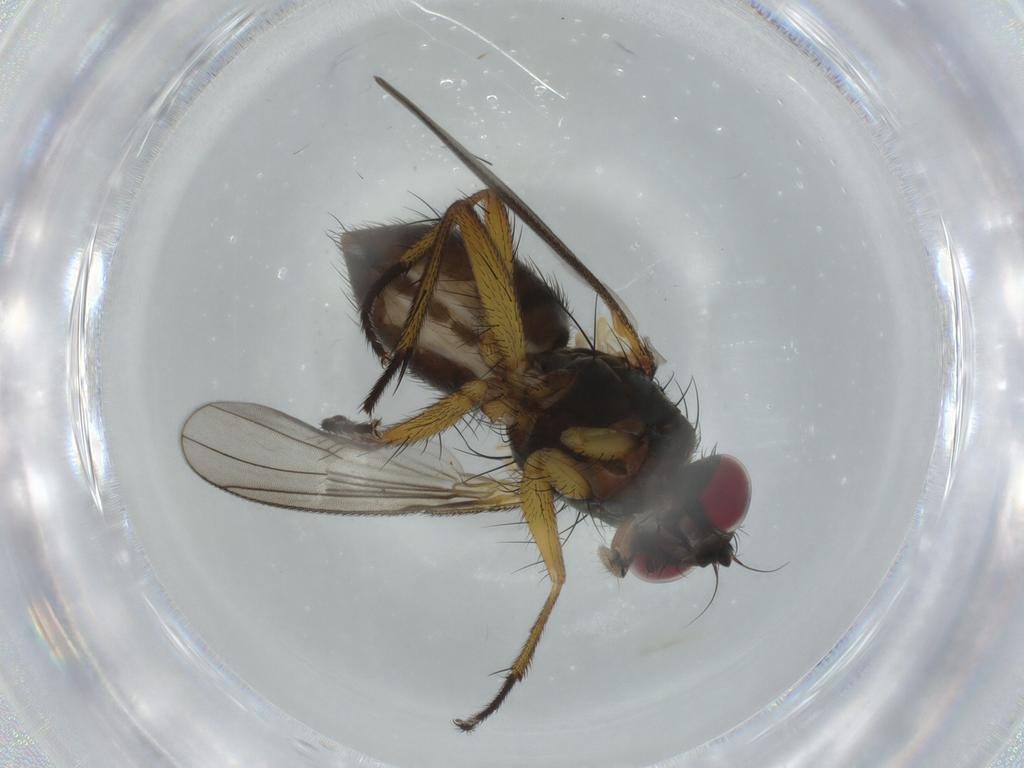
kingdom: Animalia
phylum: Arthropoda
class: Insecta
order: Diptera
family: Muscidae
